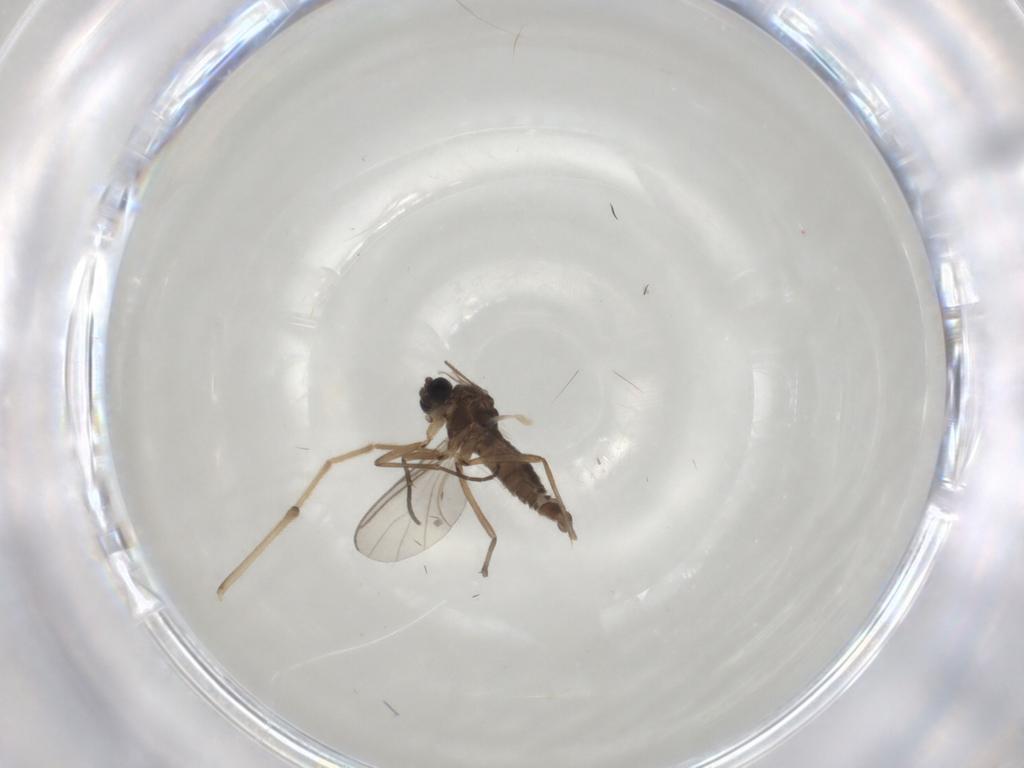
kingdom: Animalia
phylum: Arthropoda
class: Insecta
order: Diptera
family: Sciaridae
